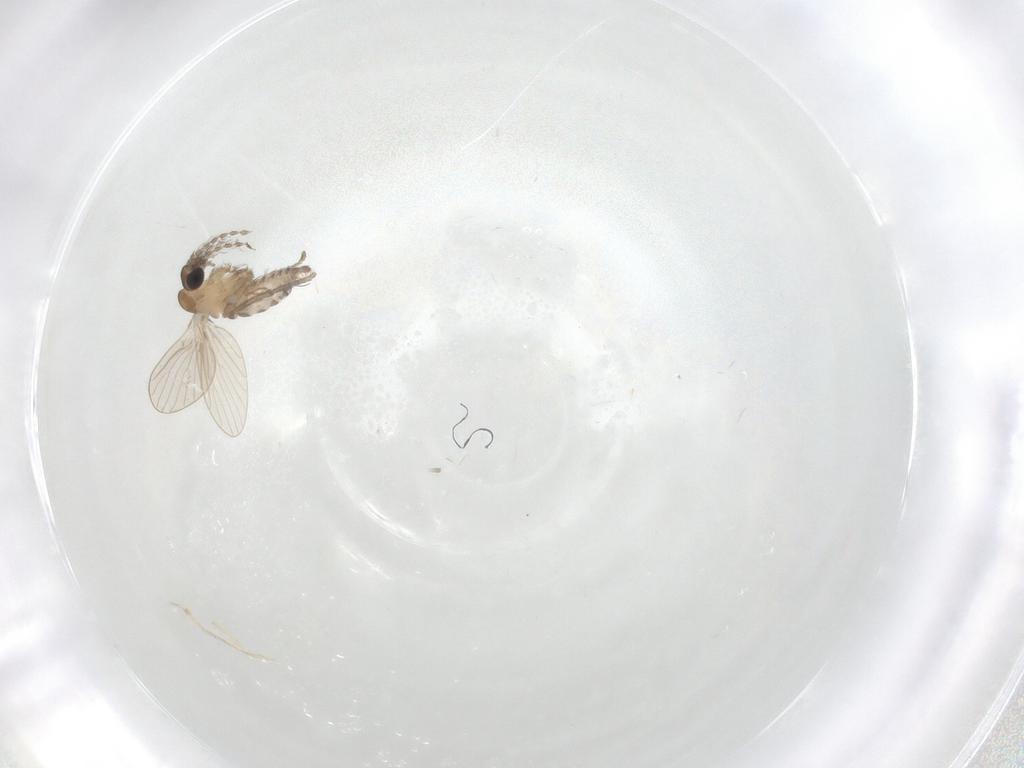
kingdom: Animalia
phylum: Arthropoda
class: Insecta
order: Diptera
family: Psychodidae
